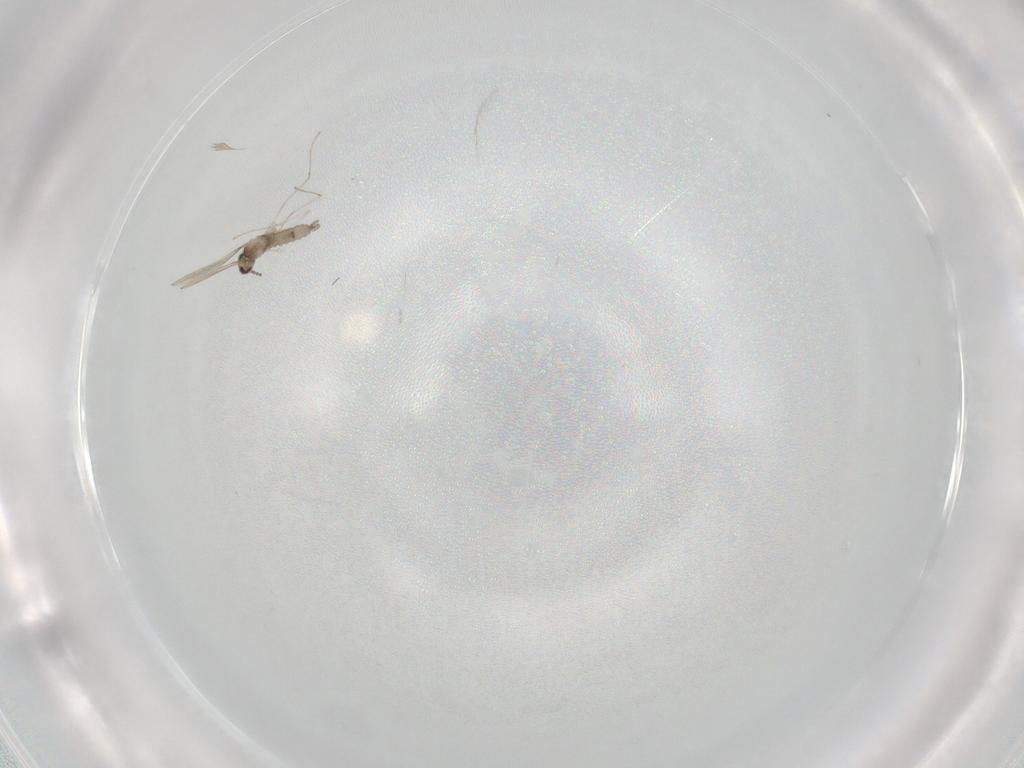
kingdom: Animalia
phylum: Arthropoda
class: Insecta
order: Diptera
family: Cecidomyiidae
